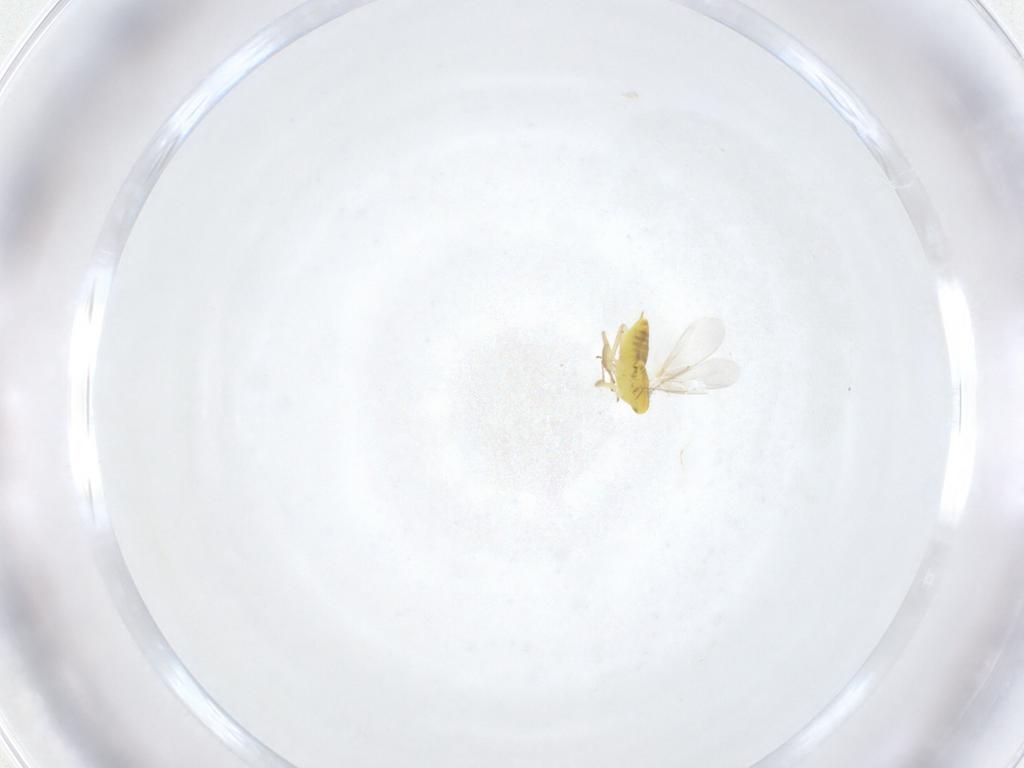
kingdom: Animalia
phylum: Arthropoda
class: Insecta
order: Hymenoptera
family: Aphelinidae
